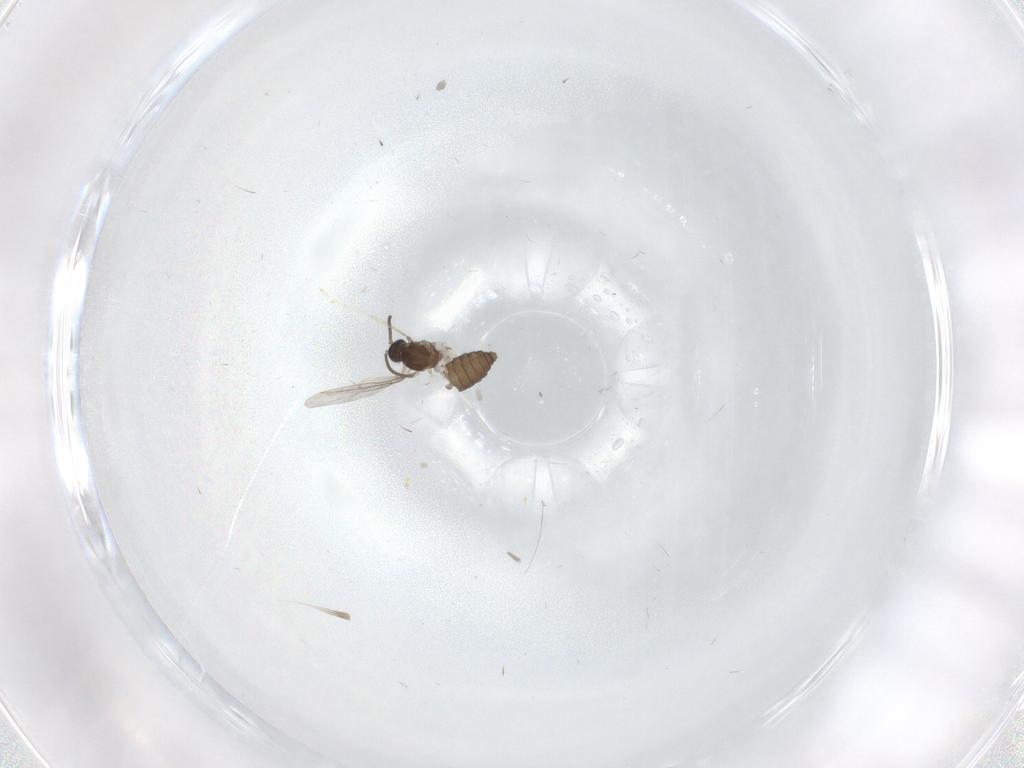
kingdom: Animalia
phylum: Arthropoda
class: Insecta
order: Diptera
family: Cecidomyiidae
